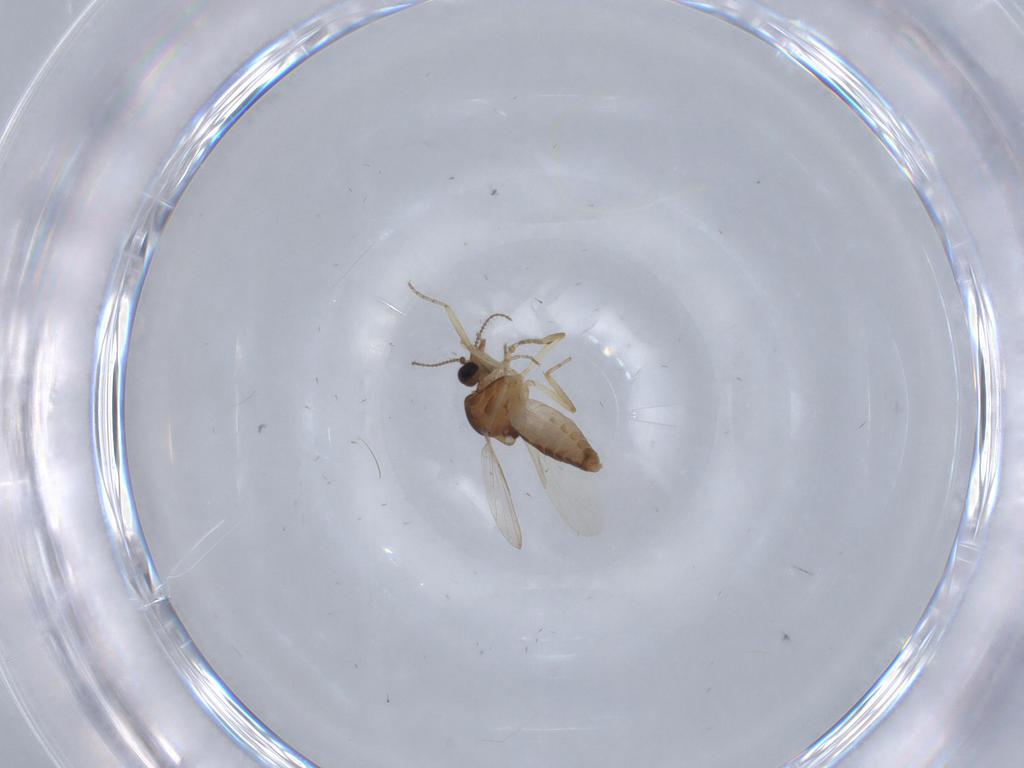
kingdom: Animalia
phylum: Arthropoda
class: Insecta
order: Diptera
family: Ceratopogonidae
